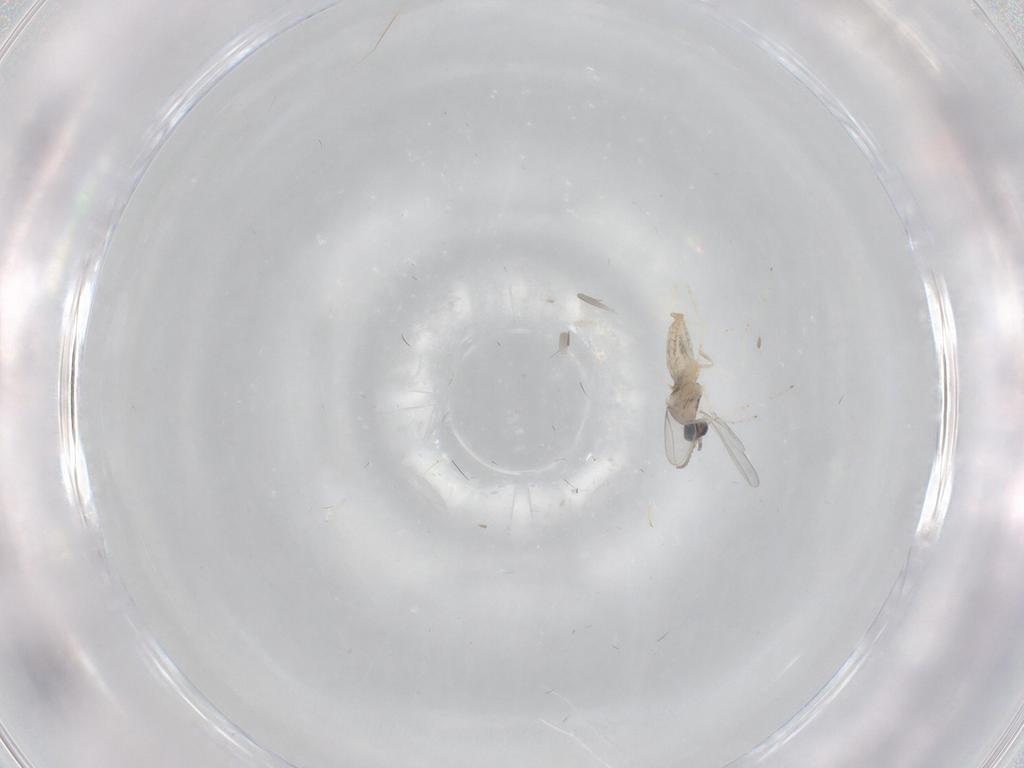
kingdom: Animalia
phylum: Arthropoda
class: Insecta
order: Diptera
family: Cecidomyiidae
